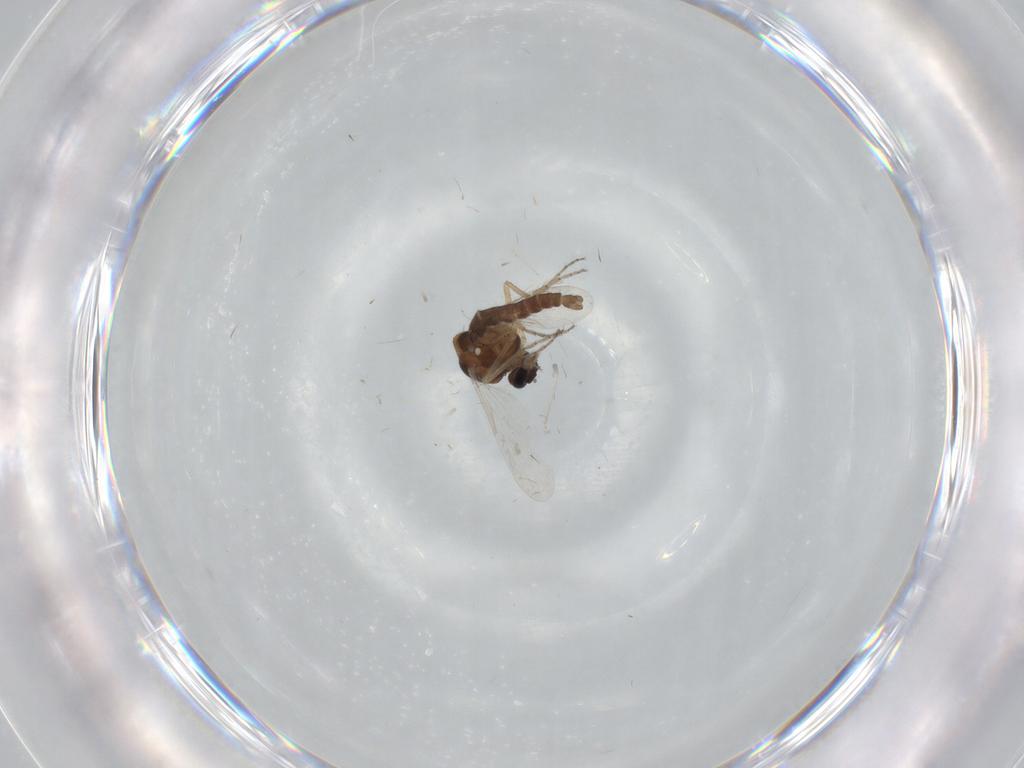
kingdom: Animalia
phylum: Arthropoda
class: Insecta
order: Diptera
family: Ceratopogonidae
